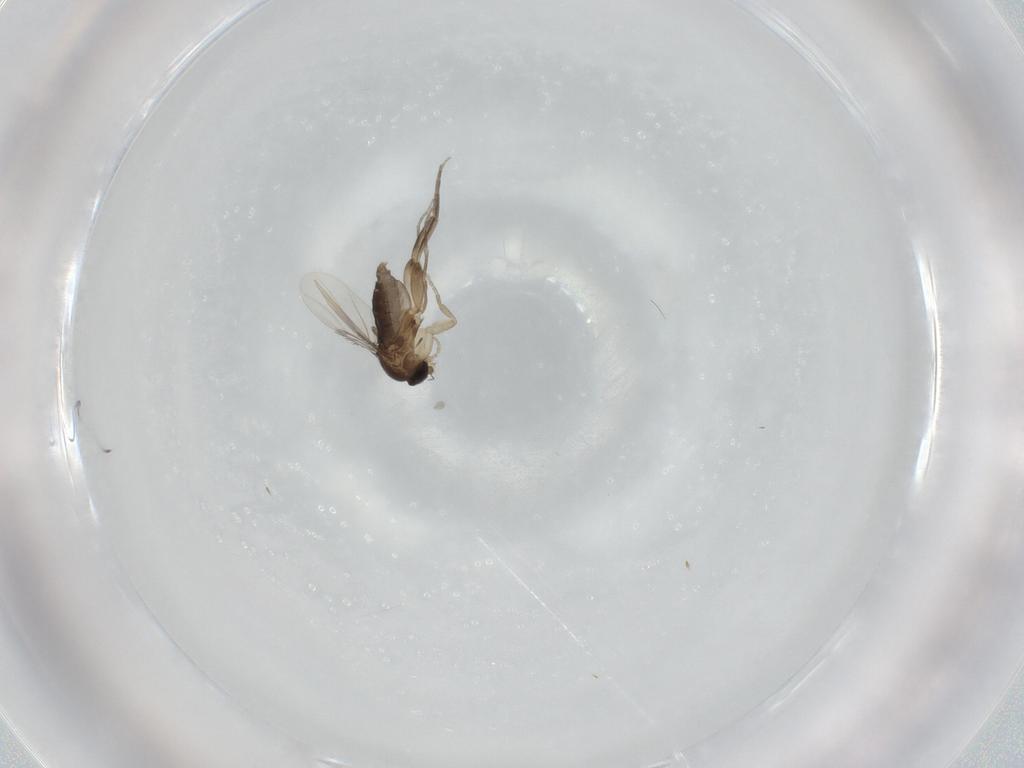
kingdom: Animalia
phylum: Arthropoda
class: Insecta
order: Diptera
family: Phoridae
